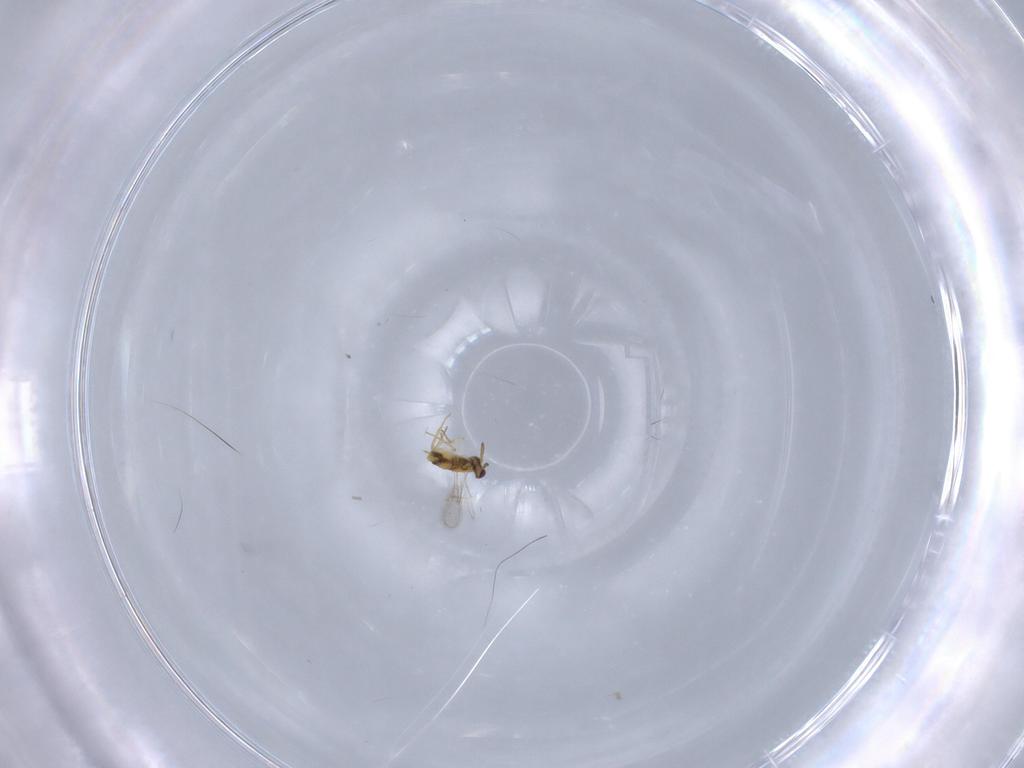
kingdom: Animalia
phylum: Arthropoda
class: Insecta
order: Hymenoptera
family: Aphelinidae
